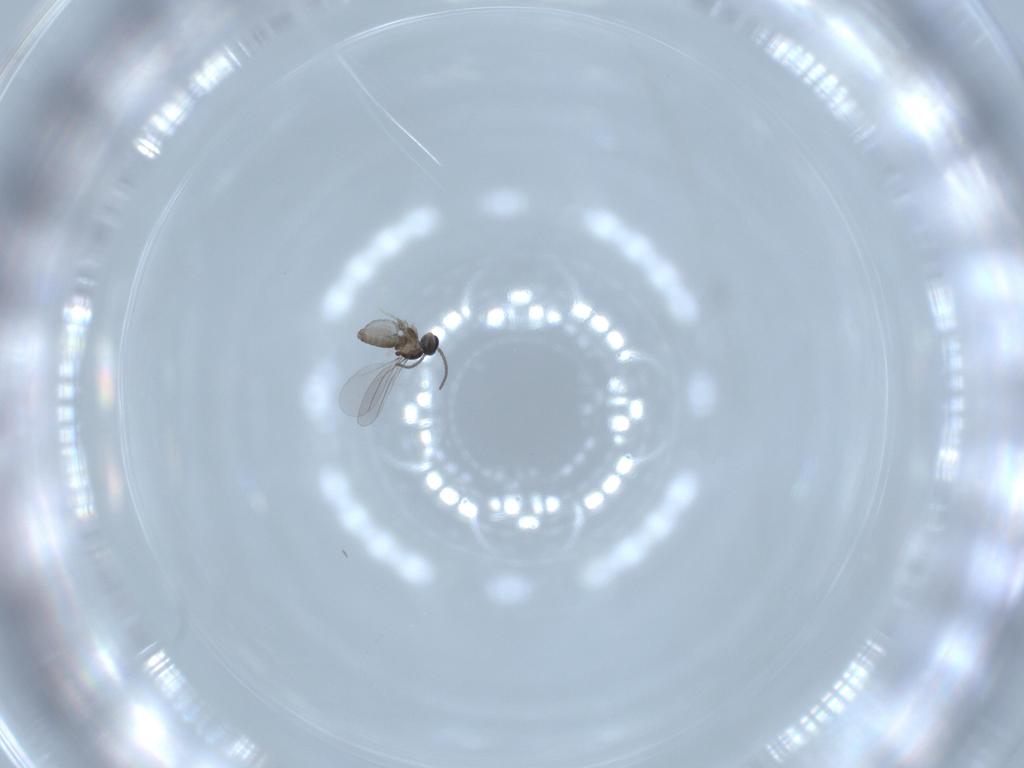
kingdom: Animalia
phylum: Arthropoda
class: Insecta
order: Diptera
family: Cecidomyiidae
